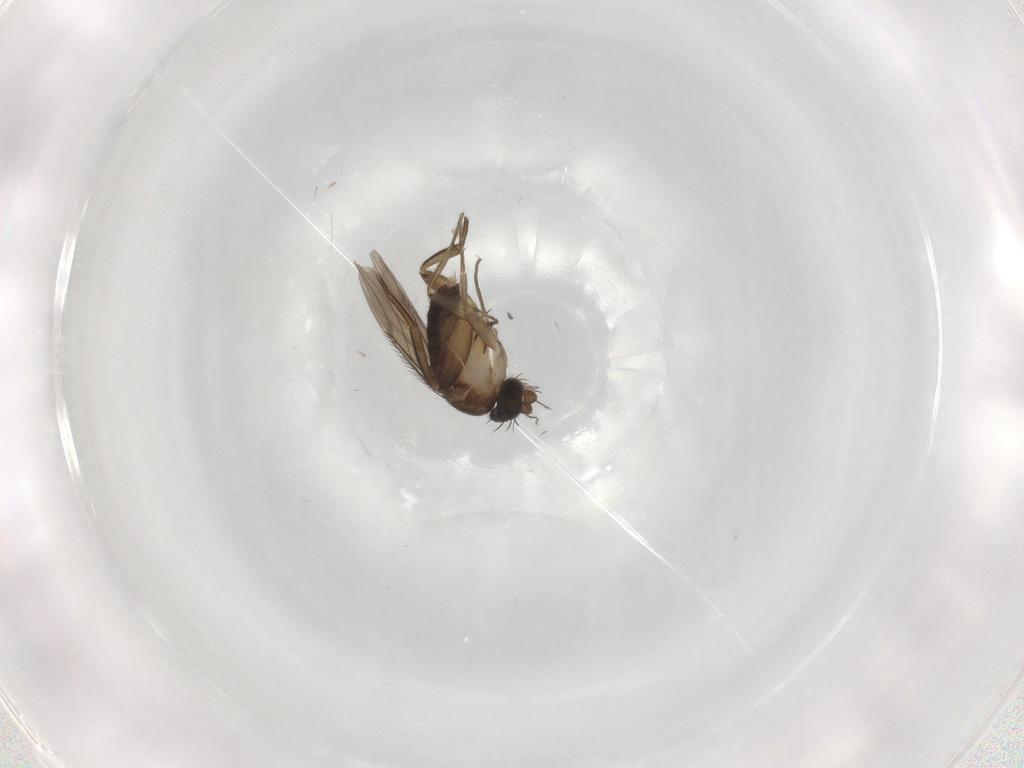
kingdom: Animalia
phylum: Arthropoda
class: Insecta
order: Diptera
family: Phoridae
